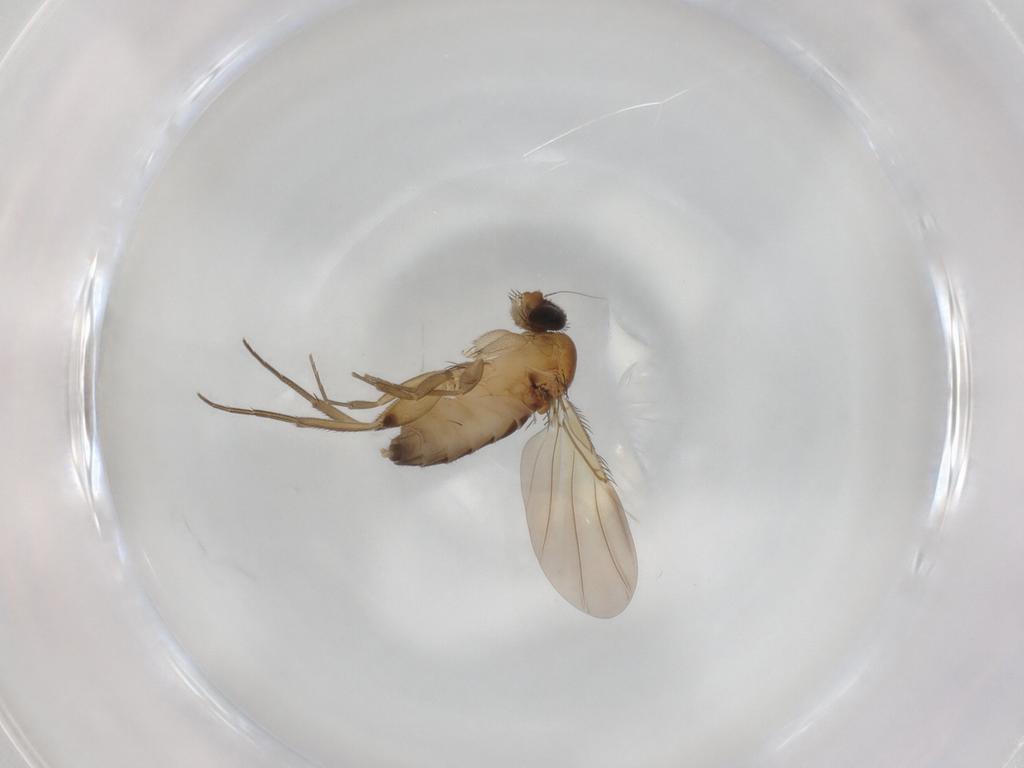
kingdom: Animalia
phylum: Arthropoda
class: Insecta
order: Diptera
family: Phoridae
